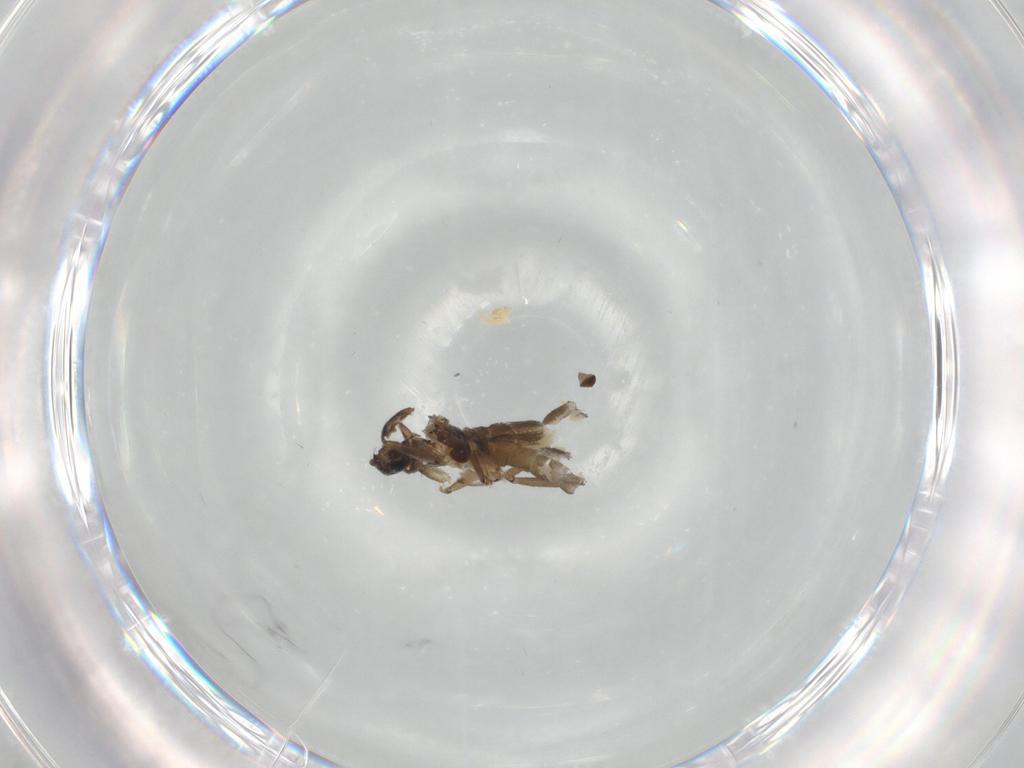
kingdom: Animalia
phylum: Arthropoda
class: Insecta
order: Diptera
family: Sciaridae
